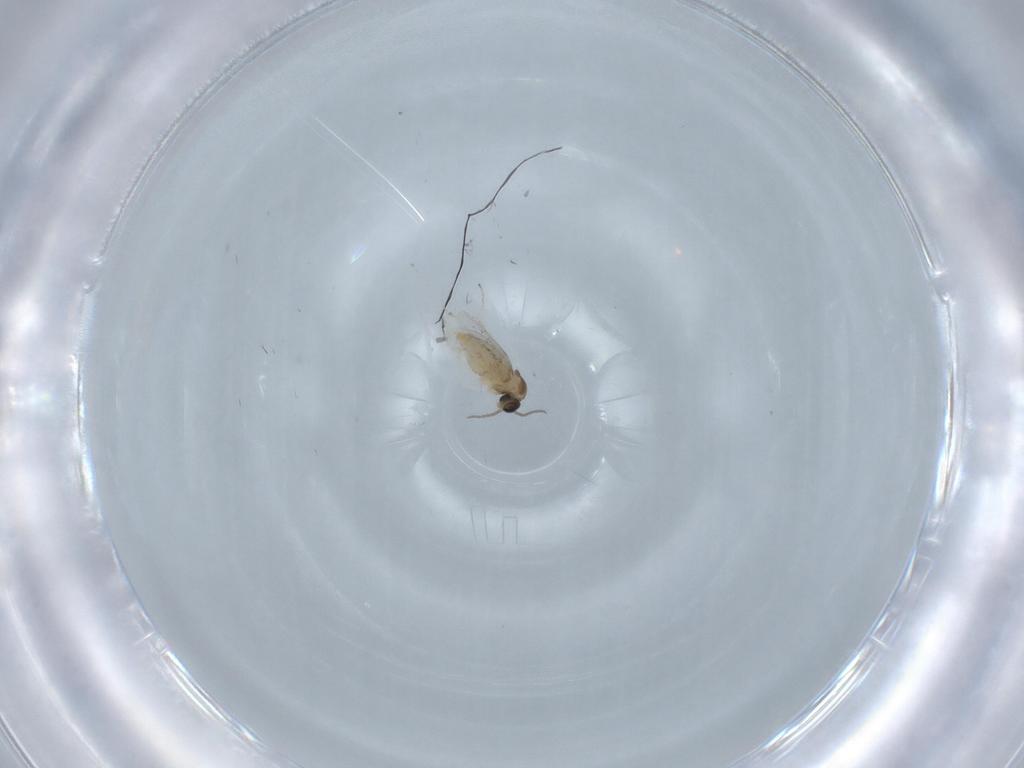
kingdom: Animalia
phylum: Arthropoda
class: Insecta
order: Diptera
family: Cecidomyiidae
